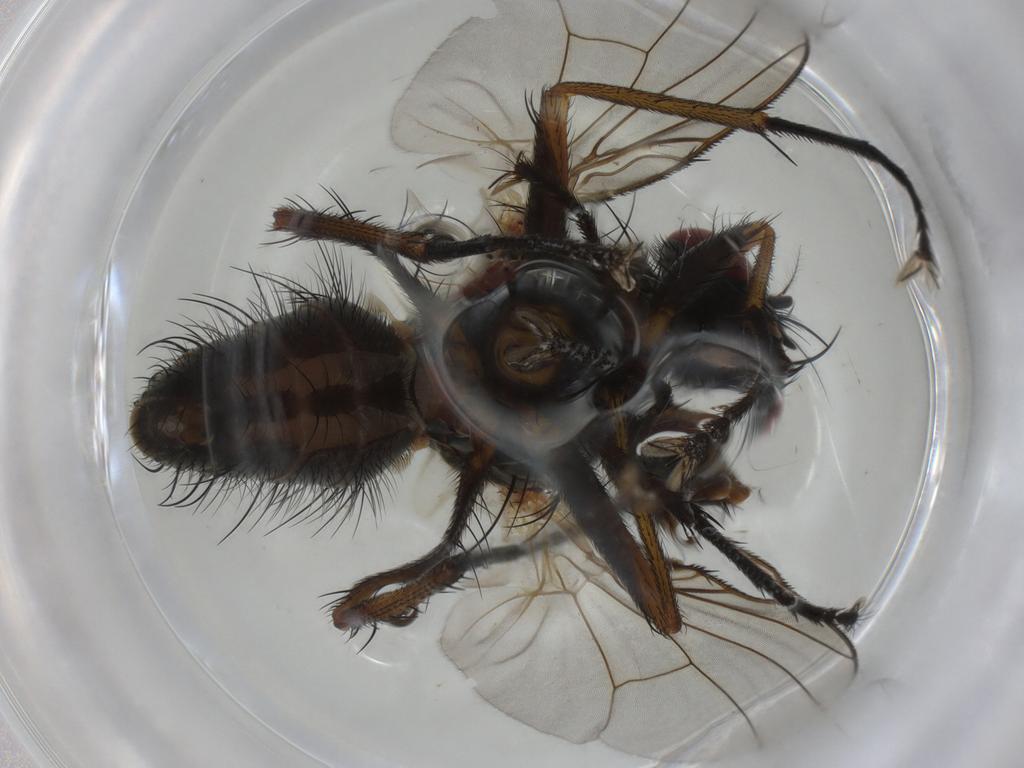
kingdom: Animalia
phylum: Arthropoda
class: Insecta
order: Diptera
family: Muscidae
